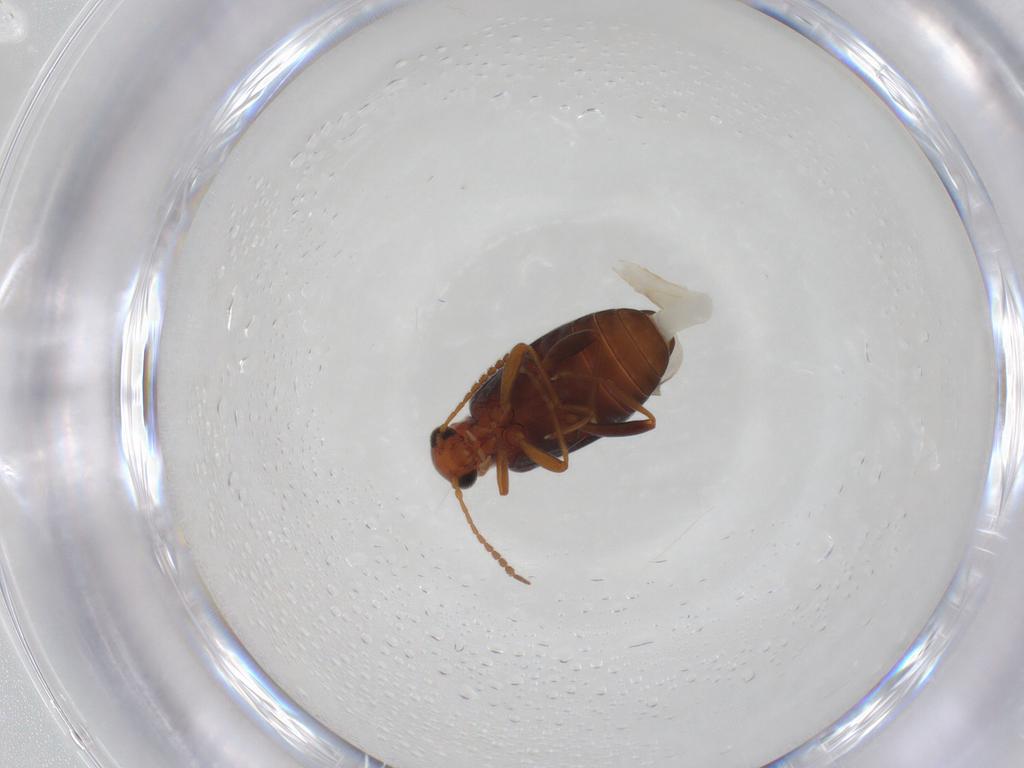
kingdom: Animalia
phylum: Arthropoda
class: Insecta
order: Coleoptera
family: Aderidae
